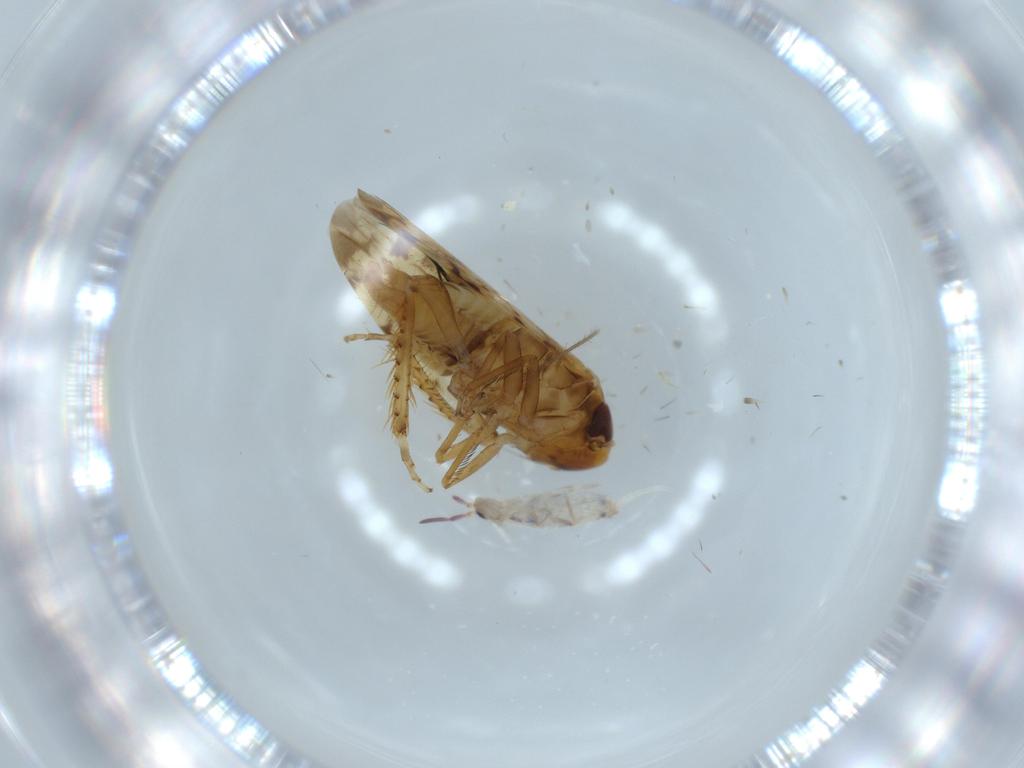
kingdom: Animalia
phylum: Arthropoda
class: Collembola
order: Entomobryomorpha
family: Entomobryidae
